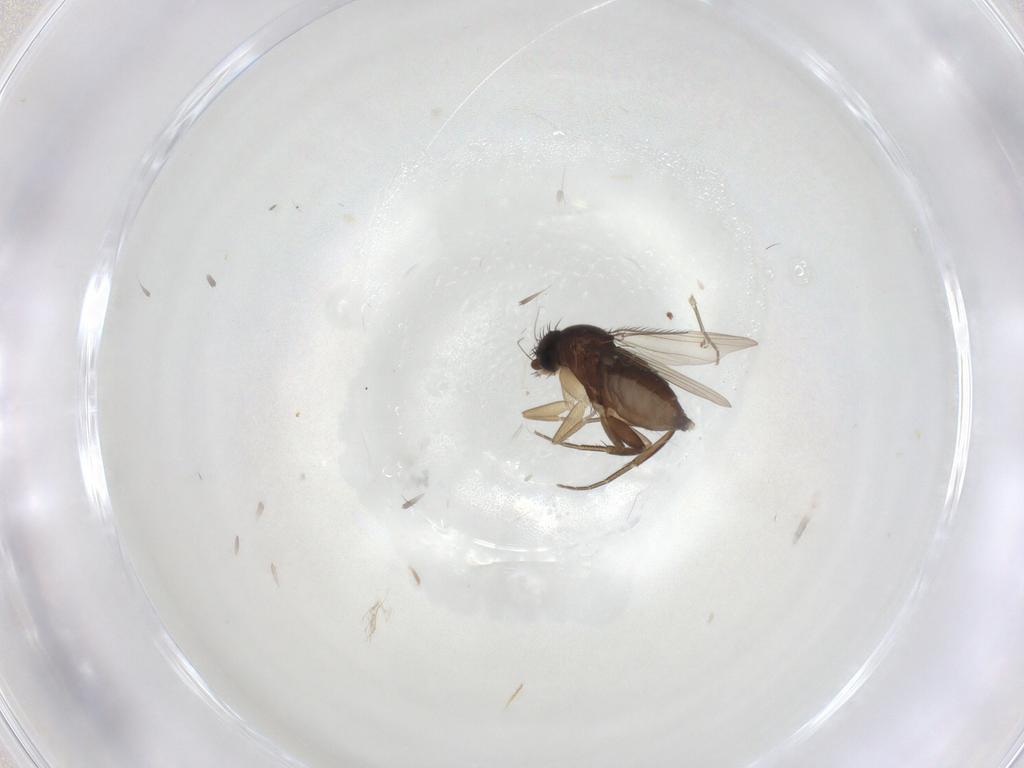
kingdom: Animalia
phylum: Arthropoda
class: Insecta
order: Diptera
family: Phoridae
